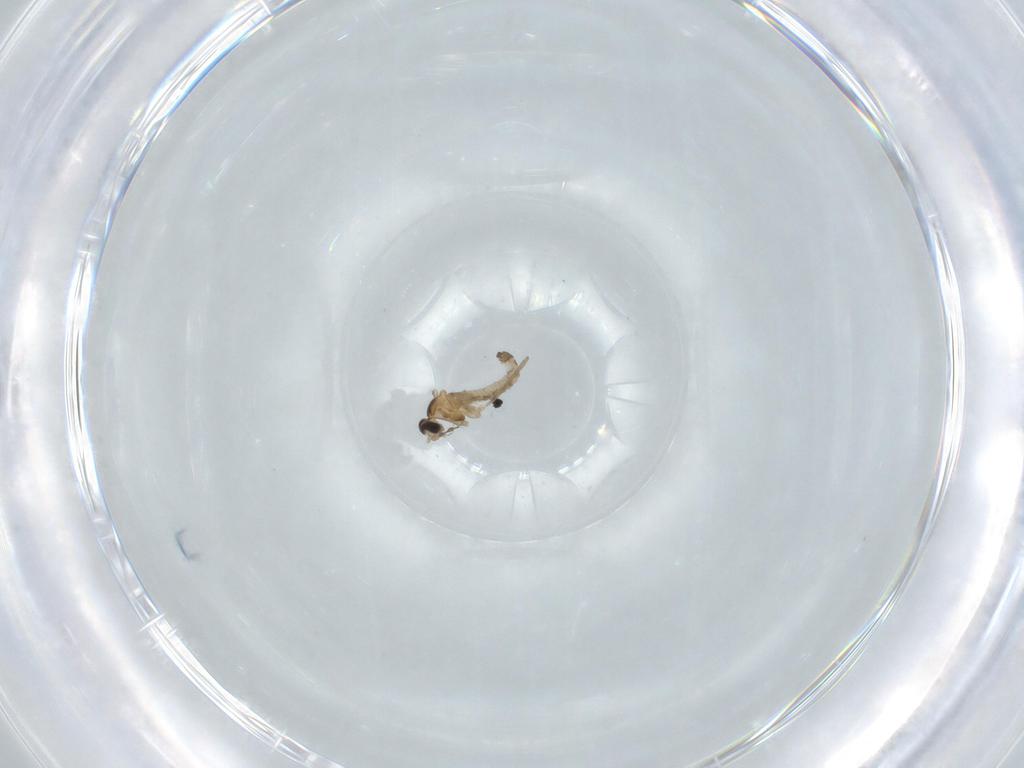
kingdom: Animalia
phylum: Arthropoda
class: Insecta
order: Diptera
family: Cecidomyiidae
